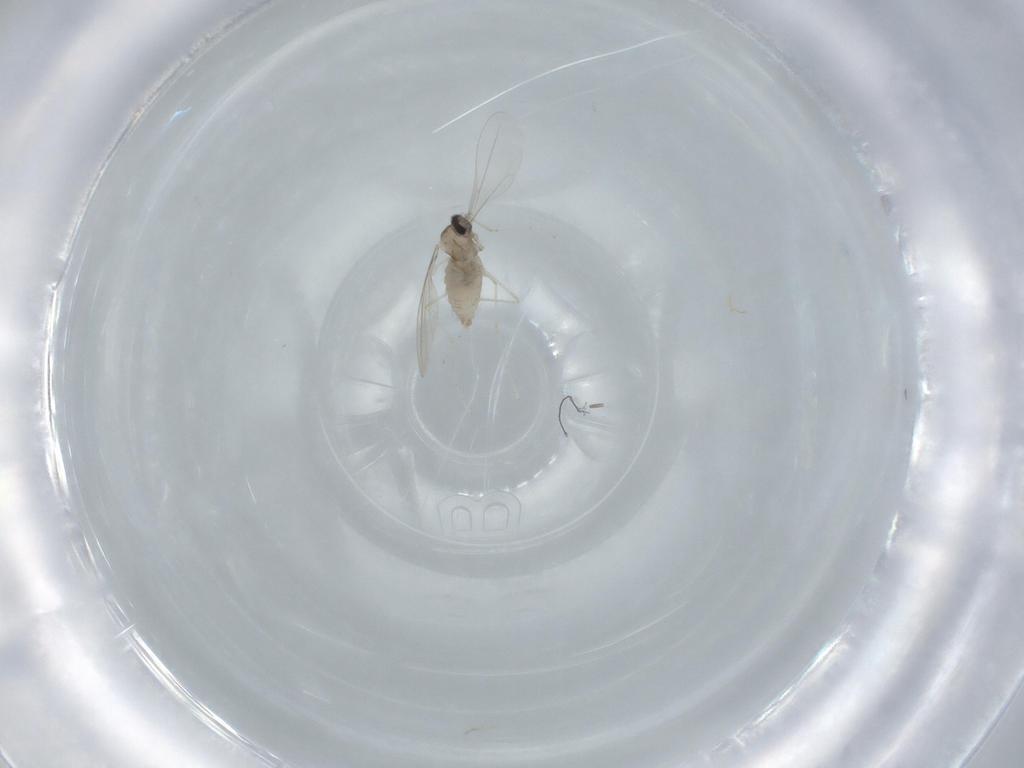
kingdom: Animalia
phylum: Arthropoda
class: Insecta
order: Diptera
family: Cecidomyiidae
